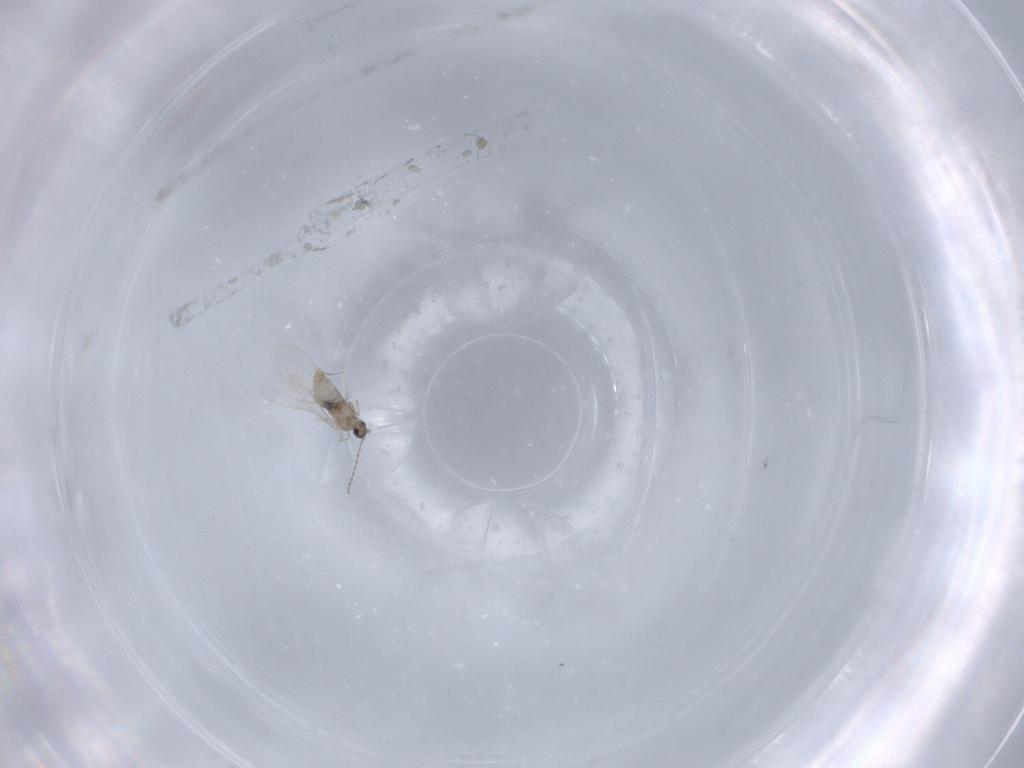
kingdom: Animalia
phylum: Arthropoda
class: Insecta
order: Diptera
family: Cecidomyiidae
